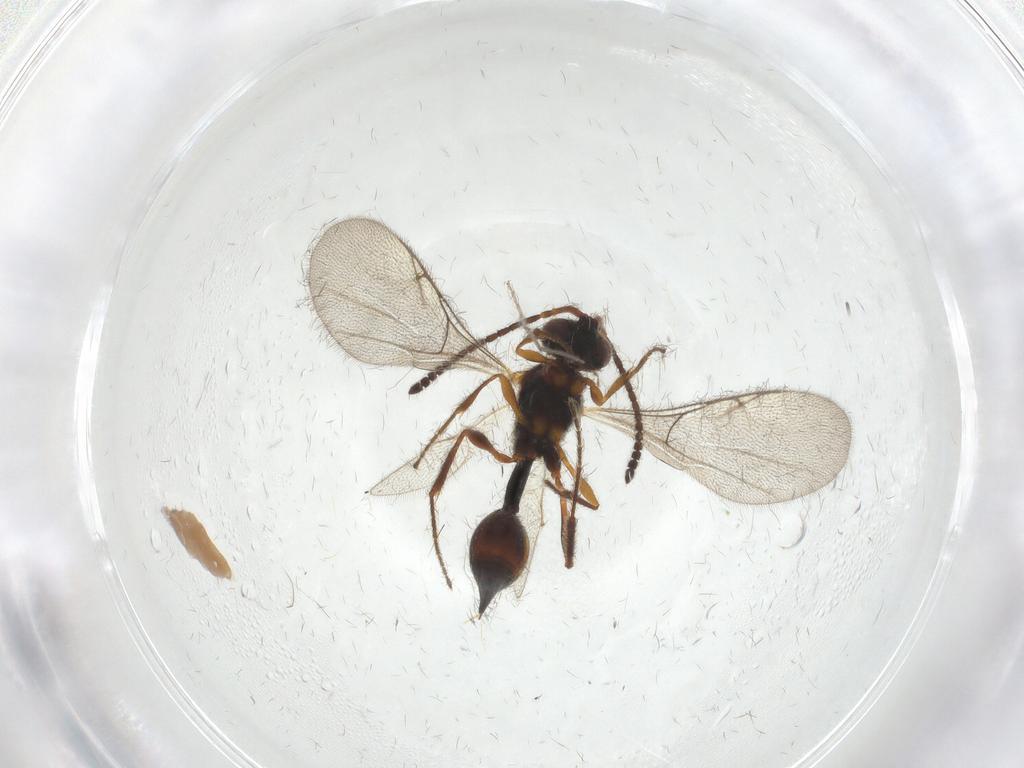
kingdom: Animalia
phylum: Arthropoda
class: Insecta
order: Hymenoptera
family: Diapriidae
